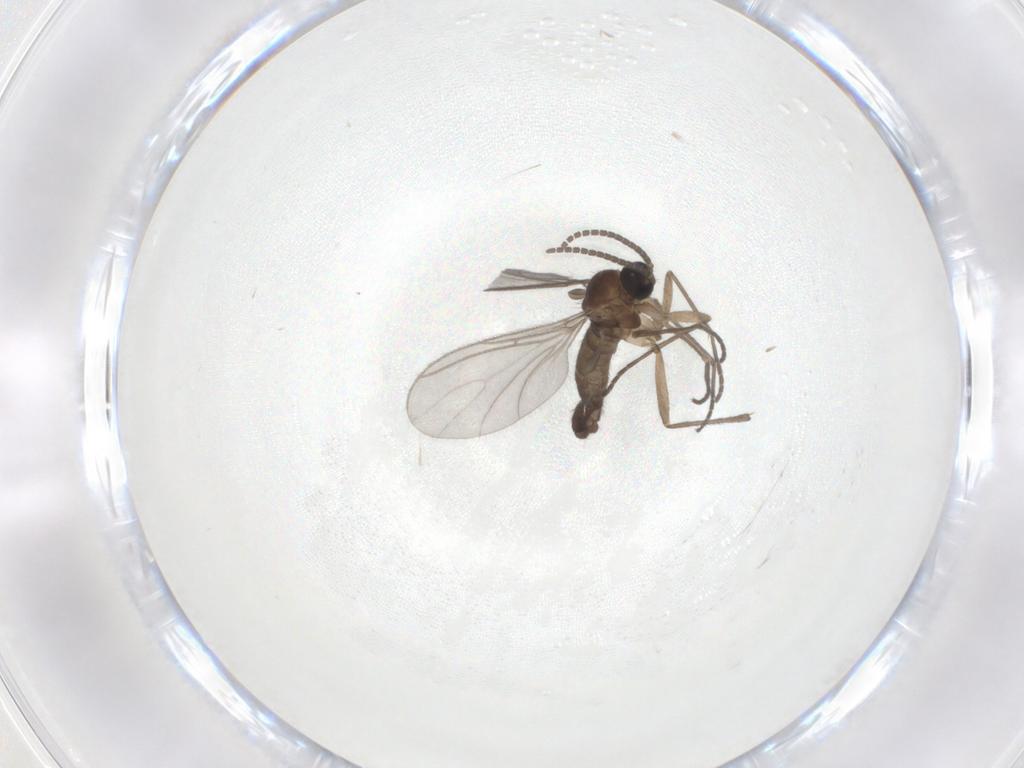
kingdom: Animalia
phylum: Arthropoda
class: Insecta
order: Diptera
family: Sciaridae
